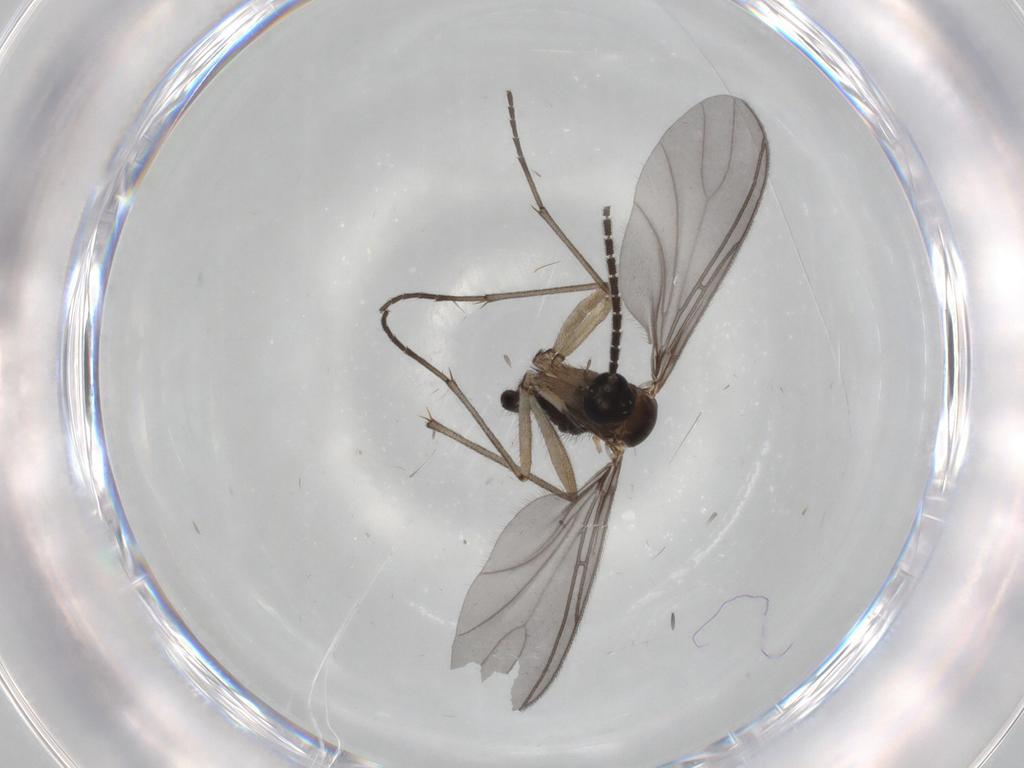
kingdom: Animalia
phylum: Arthropoda
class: Insecta
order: Diptera
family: Sciaridae
